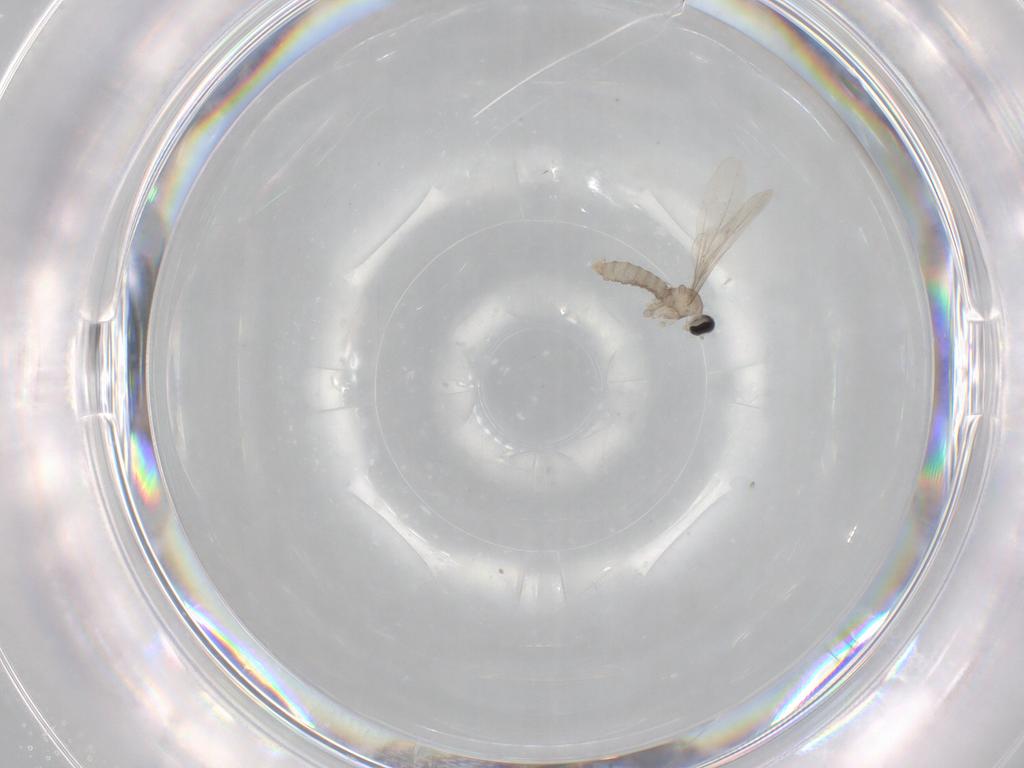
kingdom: Animalia
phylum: Arthropoda
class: Insecta
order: Diptera
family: Cecidomyiidae
